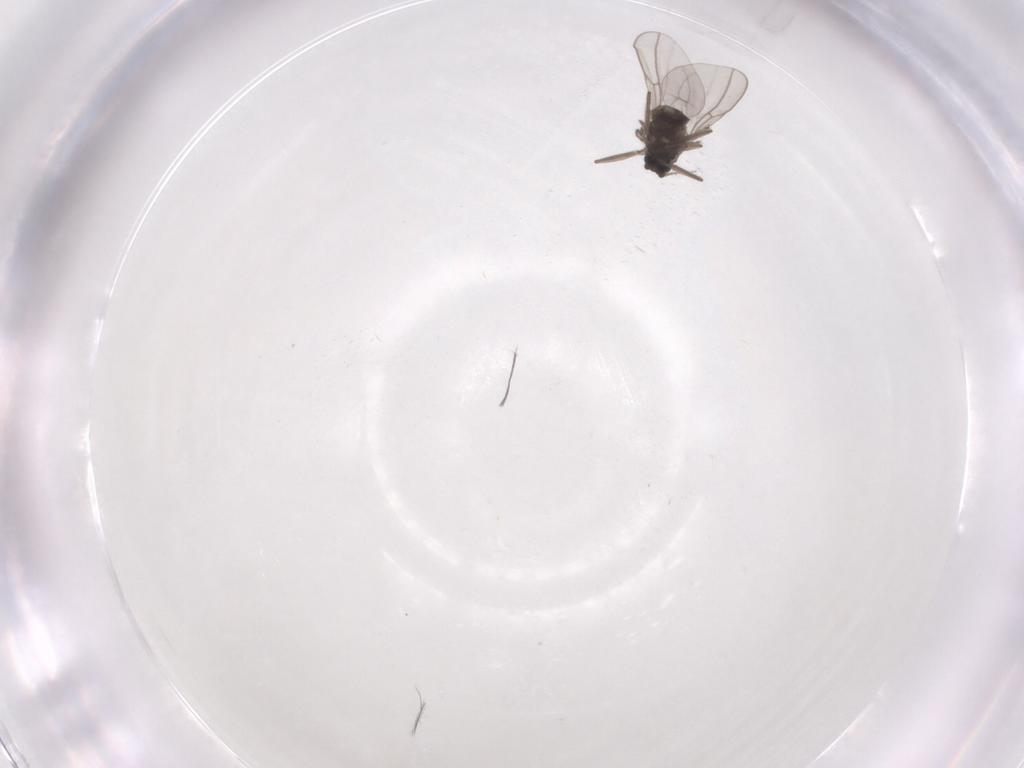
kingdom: Animalia
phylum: Arthropoda
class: Insecta
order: Diptera
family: Cecidomyiidae
